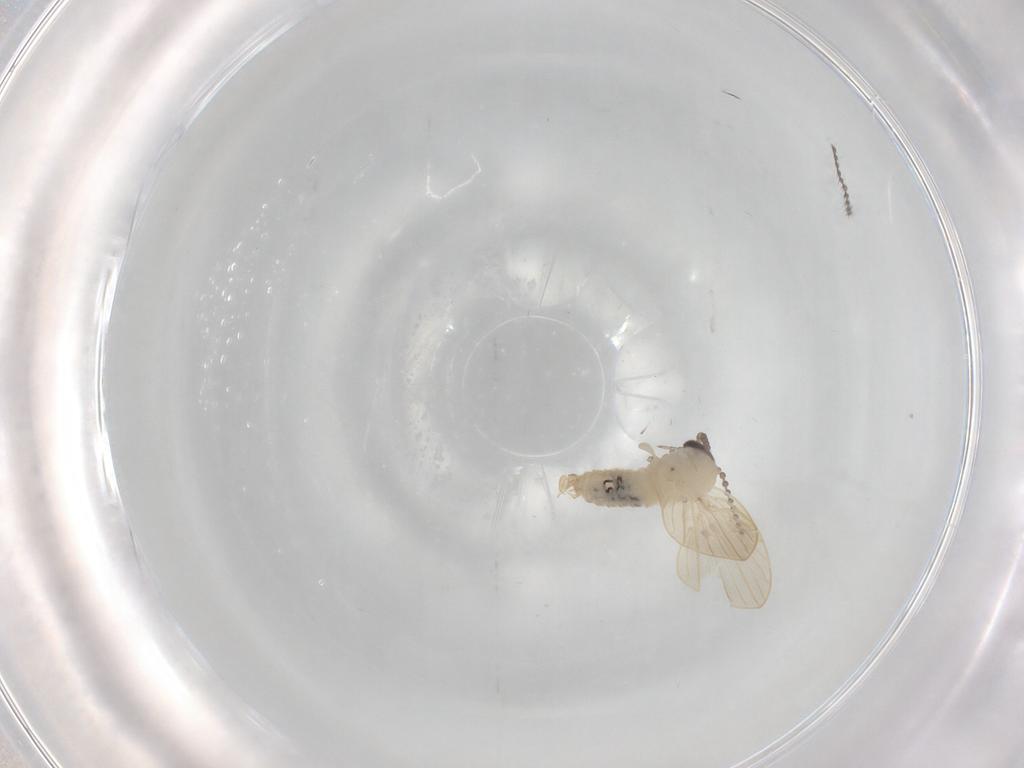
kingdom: Animalia
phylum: Arthropoda
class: Insecta
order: Diptera
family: Psychodidae
